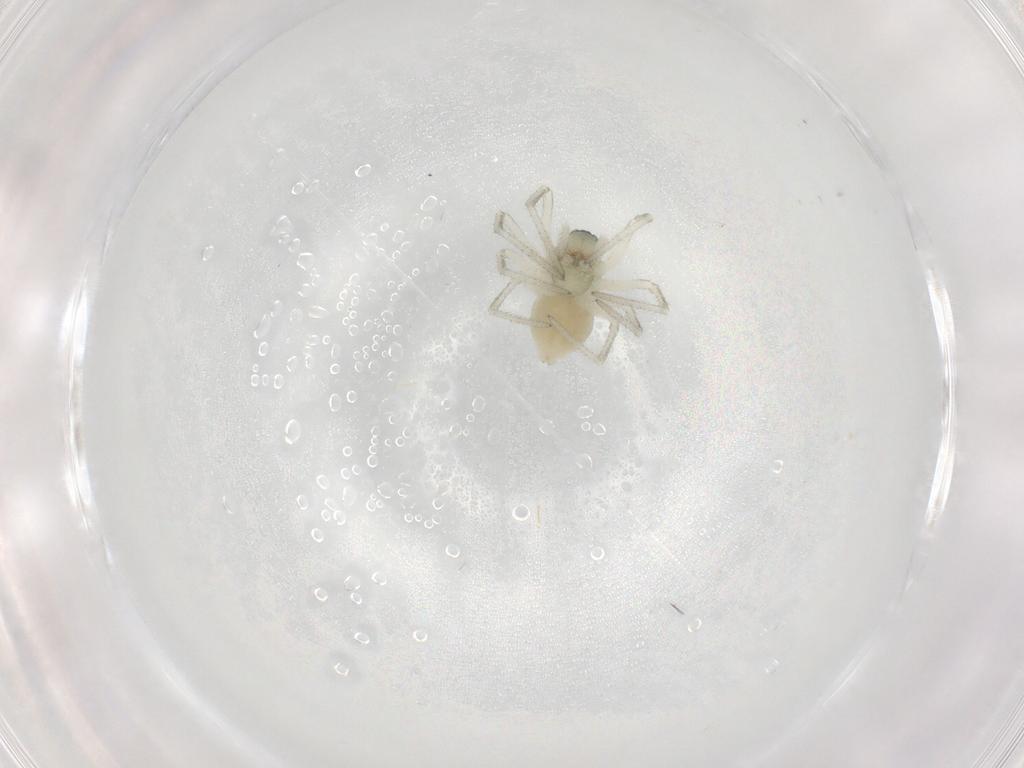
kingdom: Animalia
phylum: Arthropoda
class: Arachnida
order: Araneae
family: Linyphiidae
